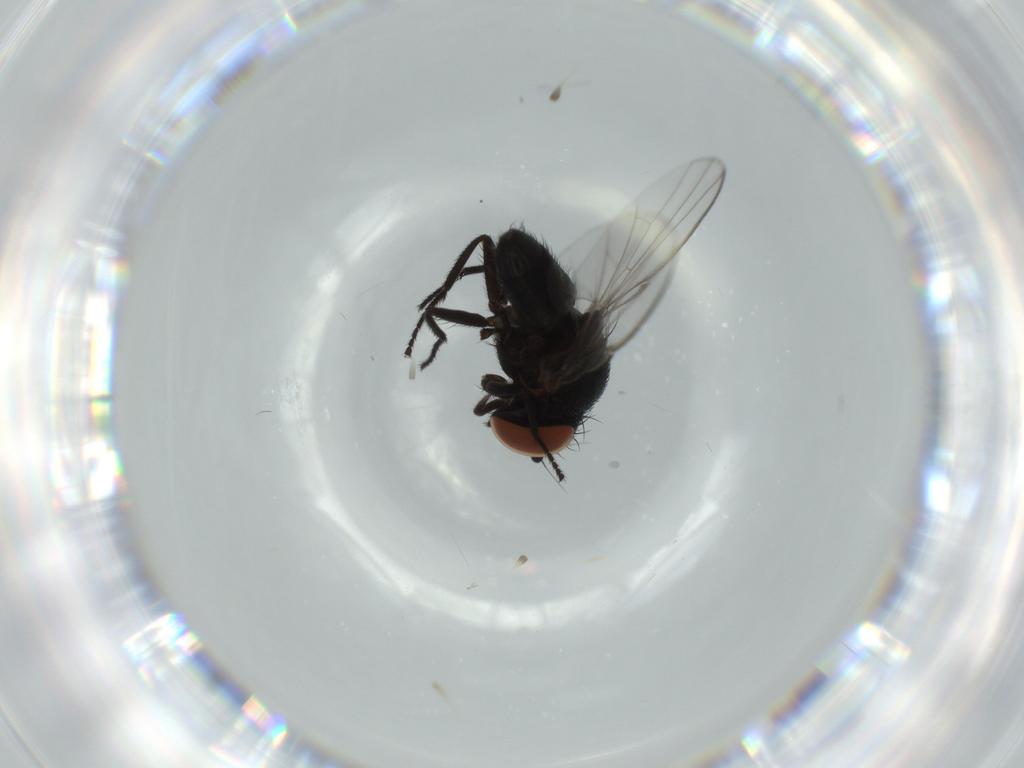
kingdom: Animalia
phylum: Arthropoda
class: Insecta
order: Diptera
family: Milichiidae
